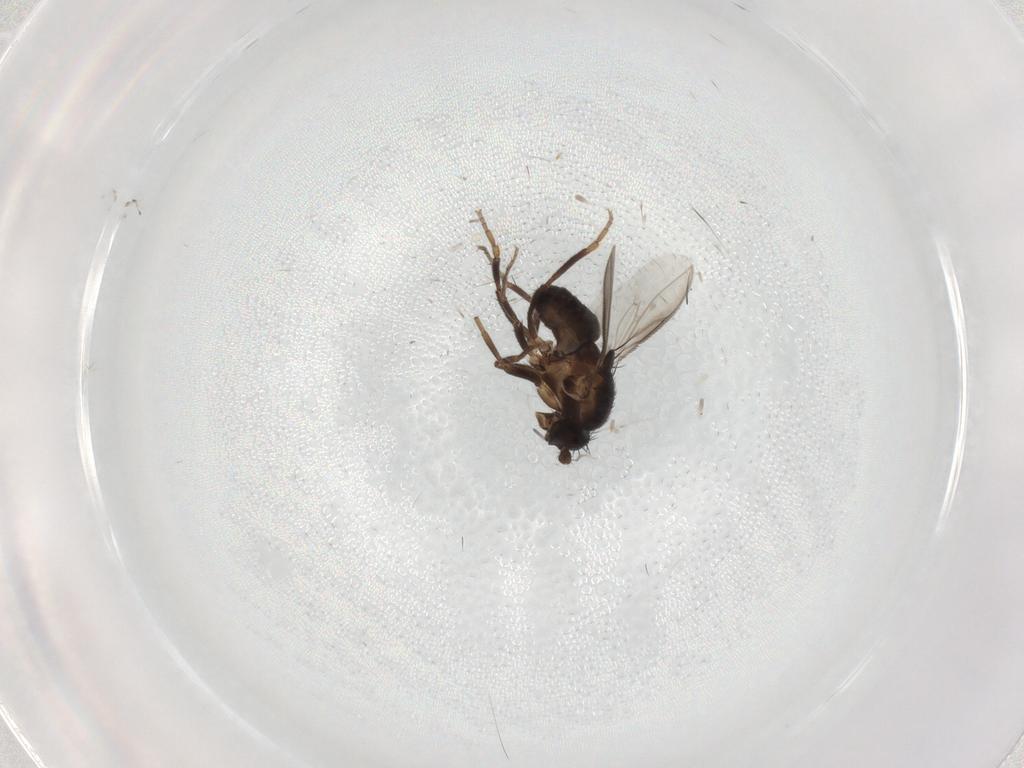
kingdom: Animalia
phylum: Arthropoda
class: Insecta
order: Diptera
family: Sphaeroceridae
